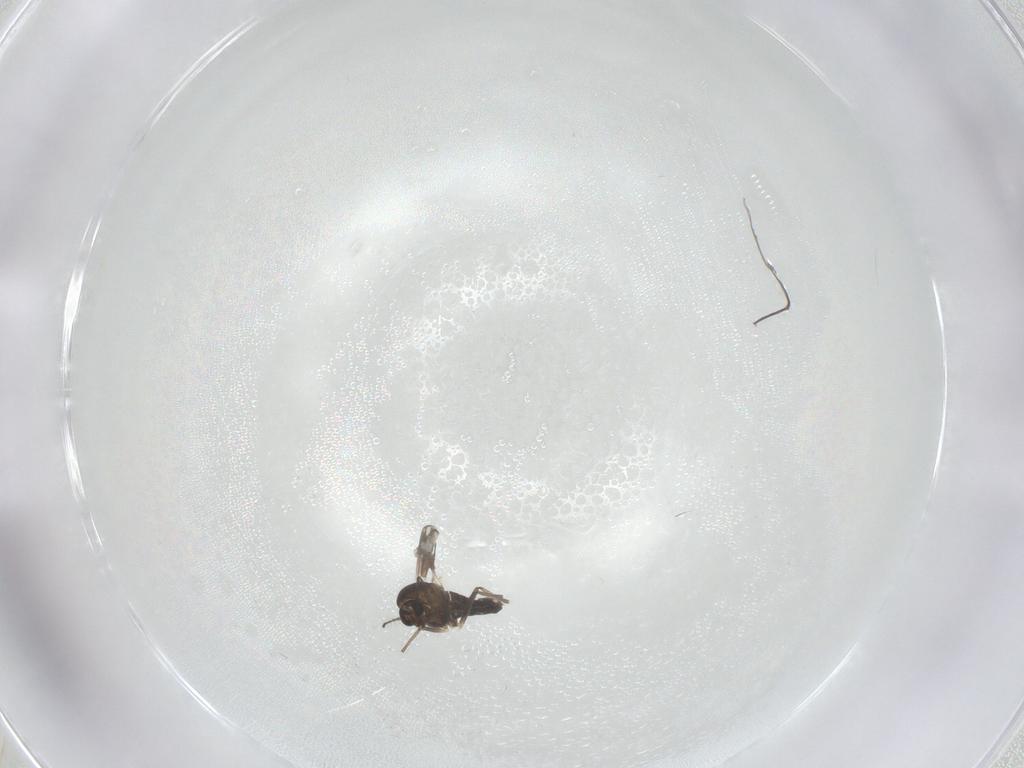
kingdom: Animalia
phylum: Arthropoda
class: Insecta
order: Diptera
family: Chironomidae
